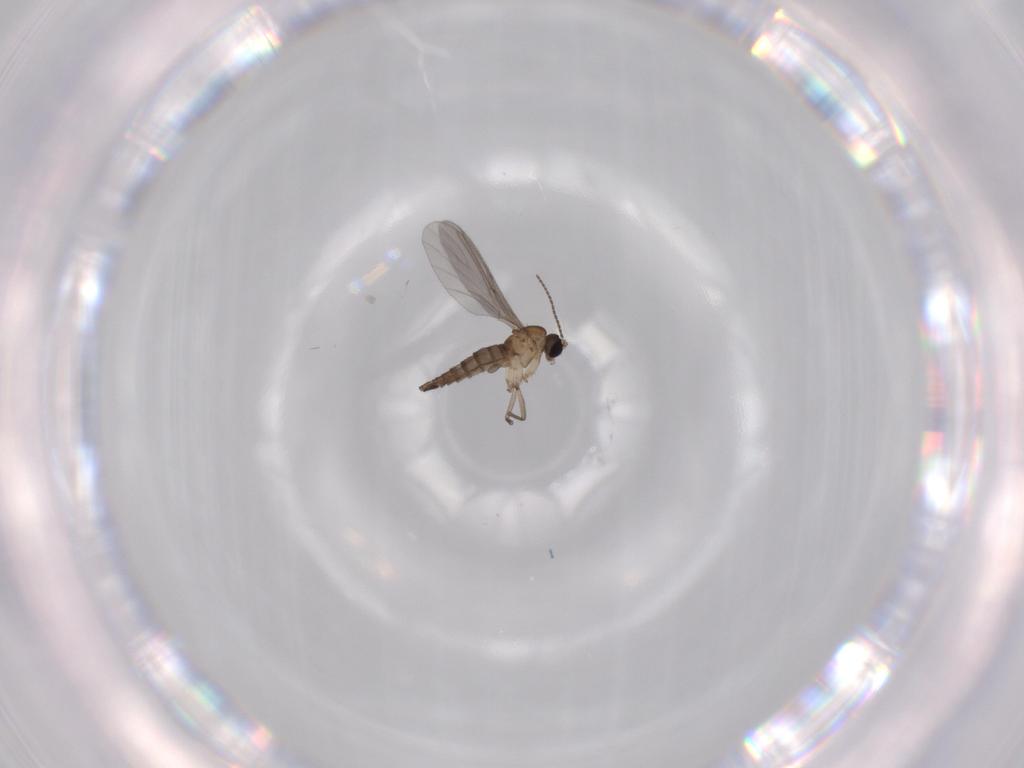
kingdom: Animalia
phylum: Arthropoda
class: Insecta
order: Diptera
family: Sciaridae
